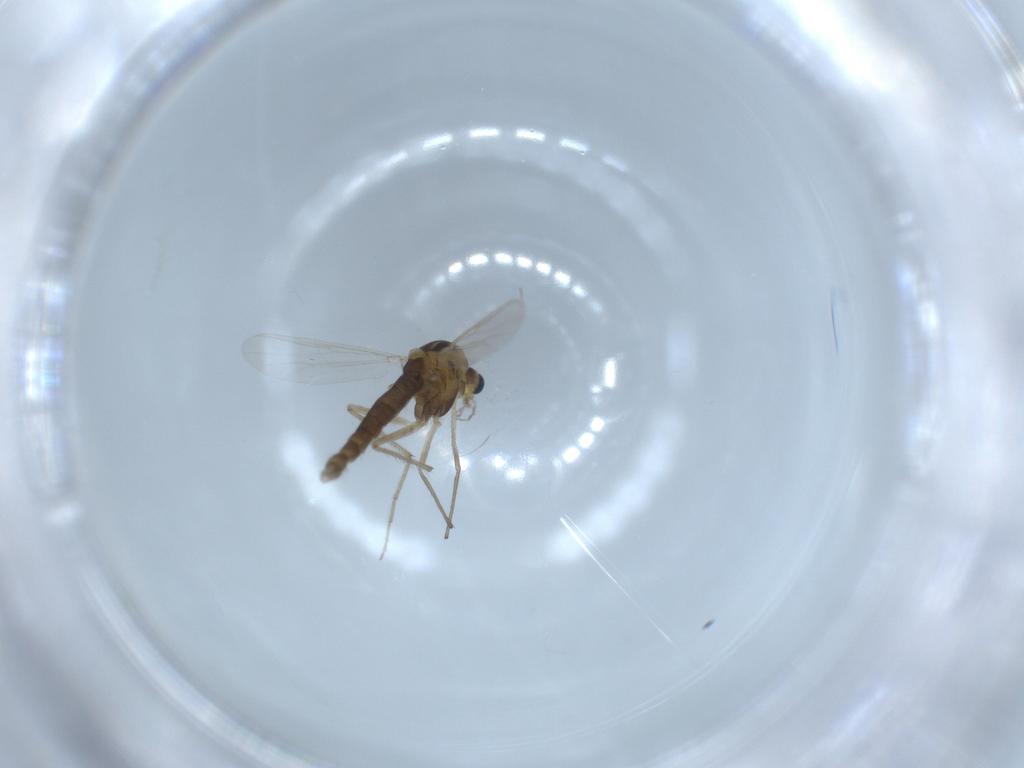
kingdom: Animalia
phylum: Arthropoda
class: Insecta
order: Diptera
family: Chironomidae
